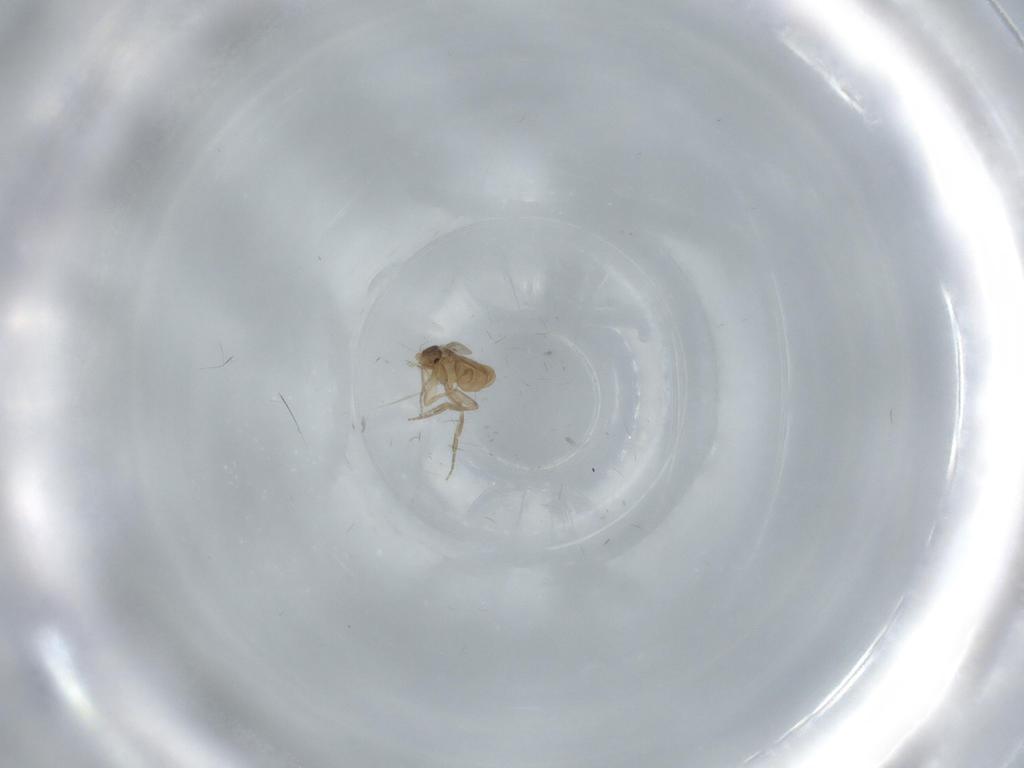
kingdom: Animalia
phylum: Arthropoda
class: Insecta
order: Diptera
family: Phoridae
